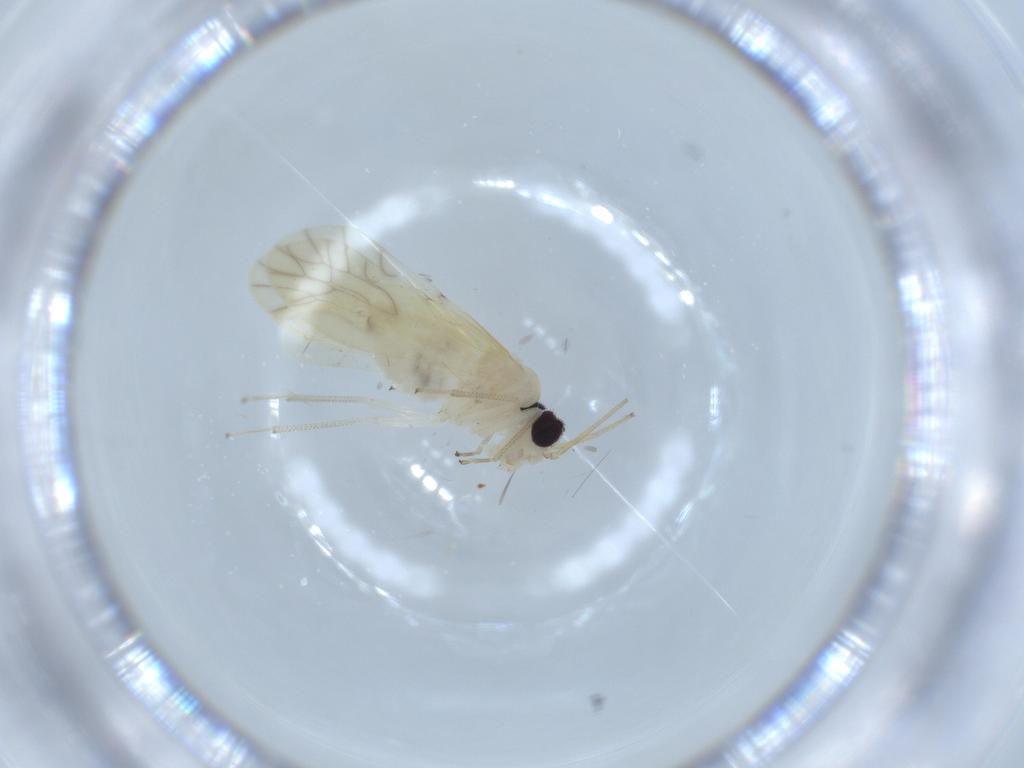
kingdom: Animalia
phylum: Arthropoda
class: Insecta
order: Psocodea
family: Caeciliusidae
